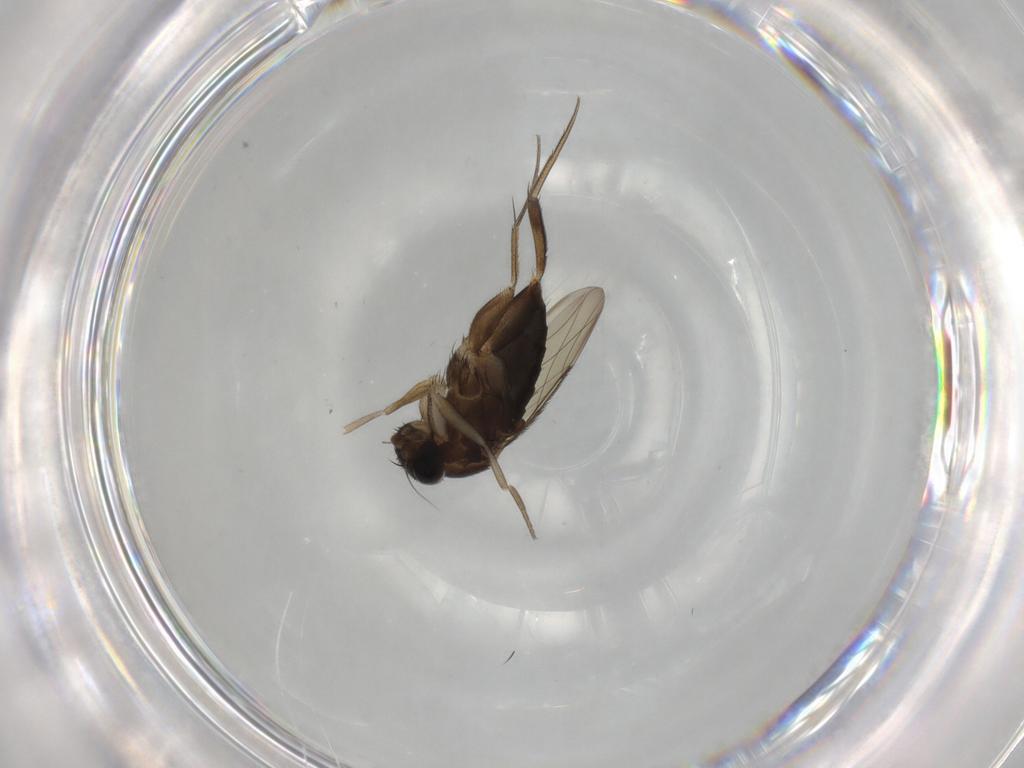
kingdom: Animalia
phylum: Arthropoda
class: Insecta
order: Diptera
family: Phoridae
